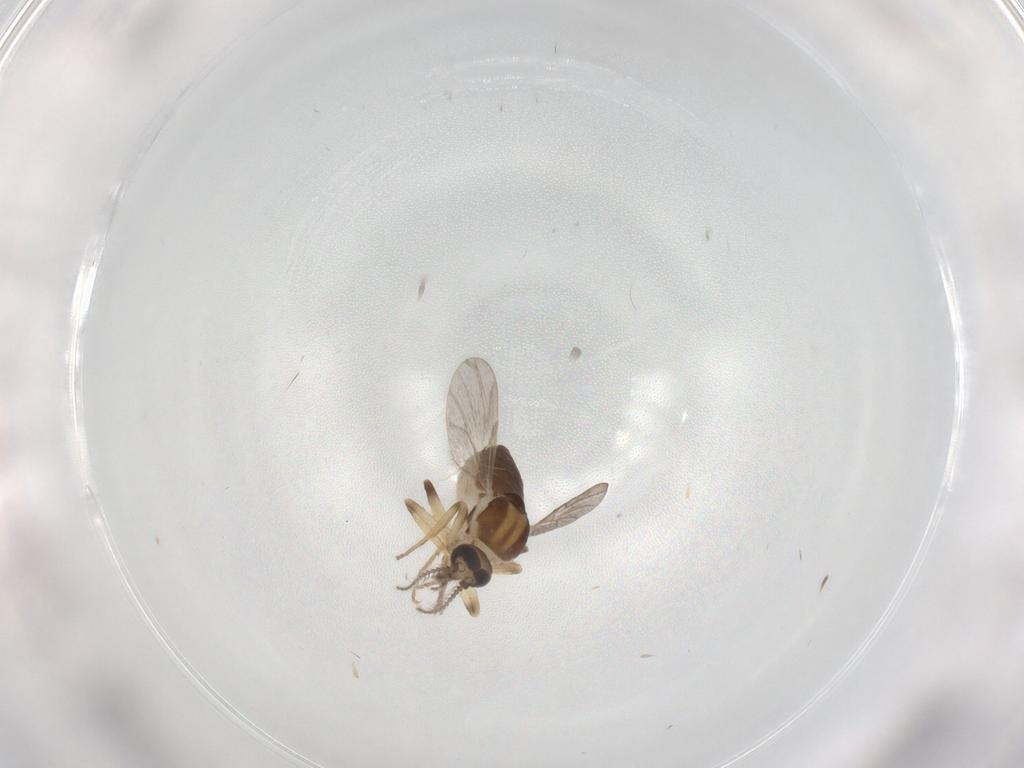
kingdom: Animalia
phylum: Arthropoda
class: Insecta
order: Diptera
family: Ceratopogonidae
